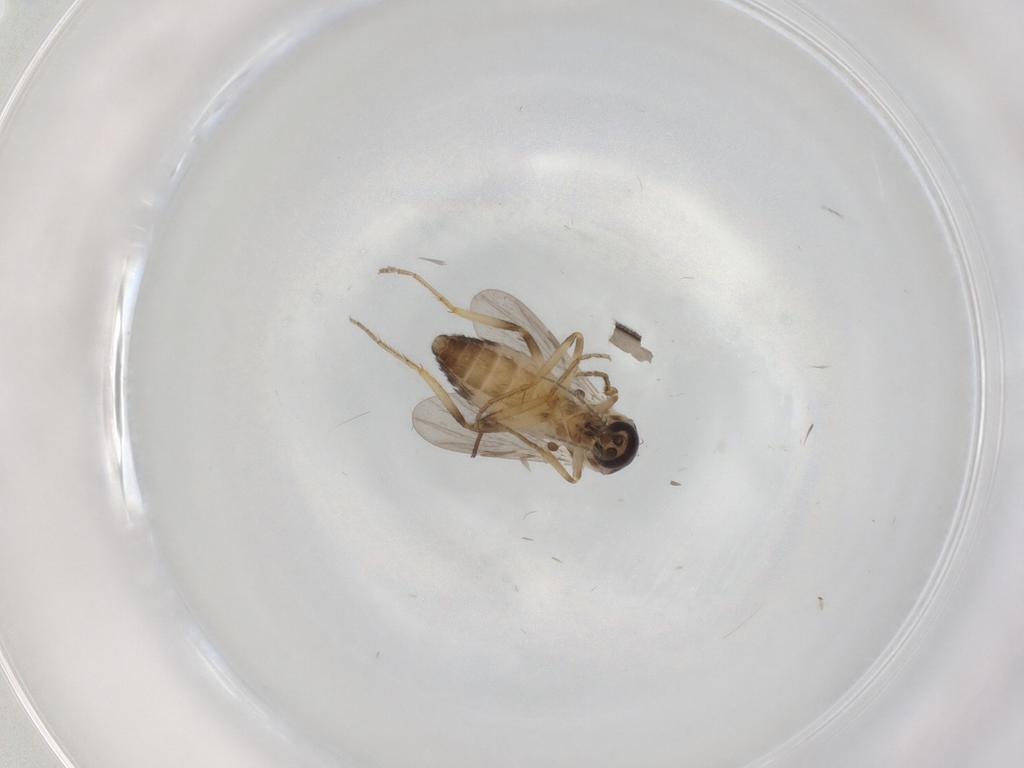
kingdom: Animalia
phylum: Arthropoda
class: Insecta
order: Diptera
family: Ceratopogonidae
